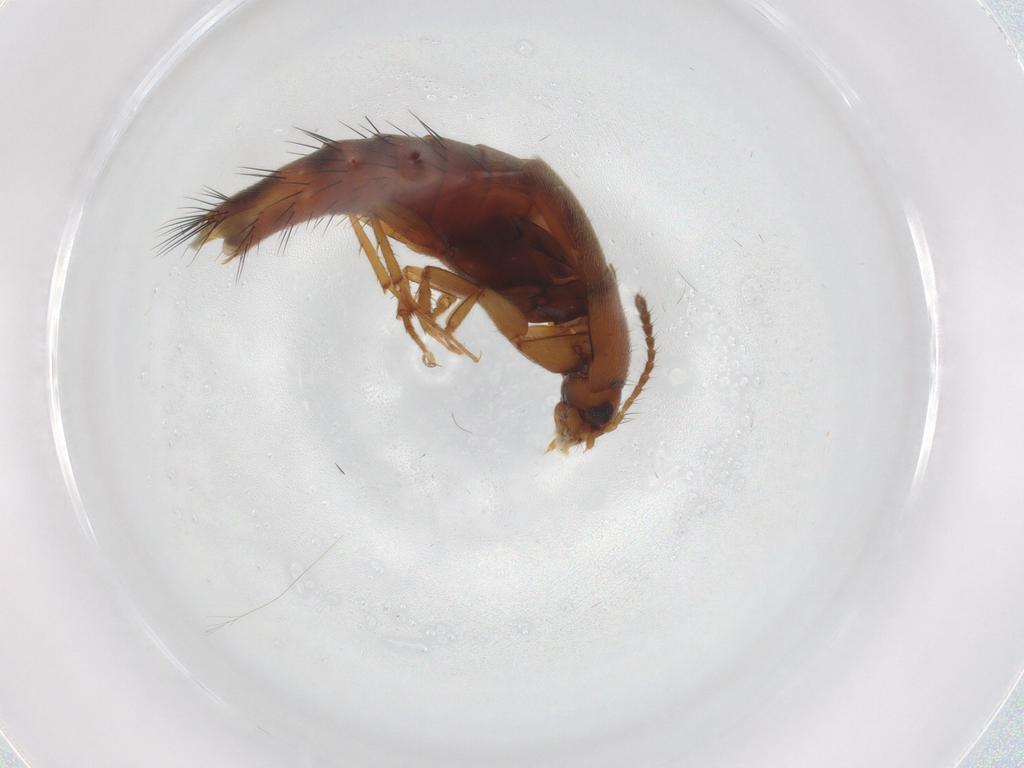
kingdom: Animalia
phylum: Arthropoda
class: Insecta
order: Coleoptera
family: Staphylinidae
